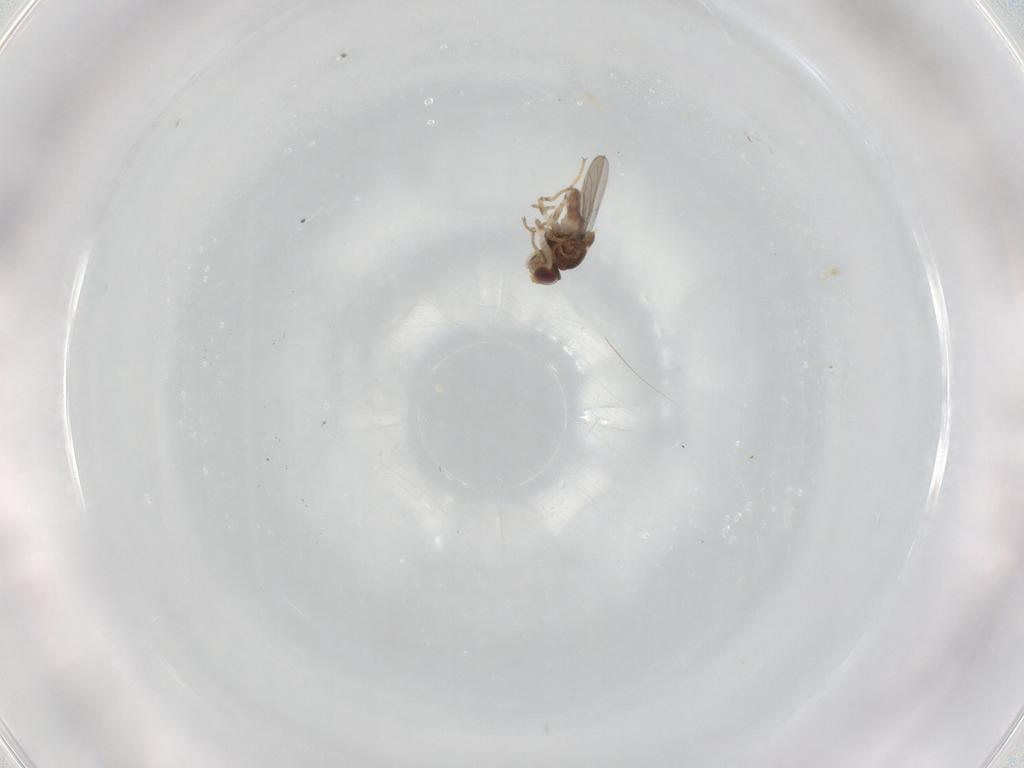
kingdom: Animalia
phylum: Arthropoda
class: Insecta
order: Diptera
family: Chloropidae
